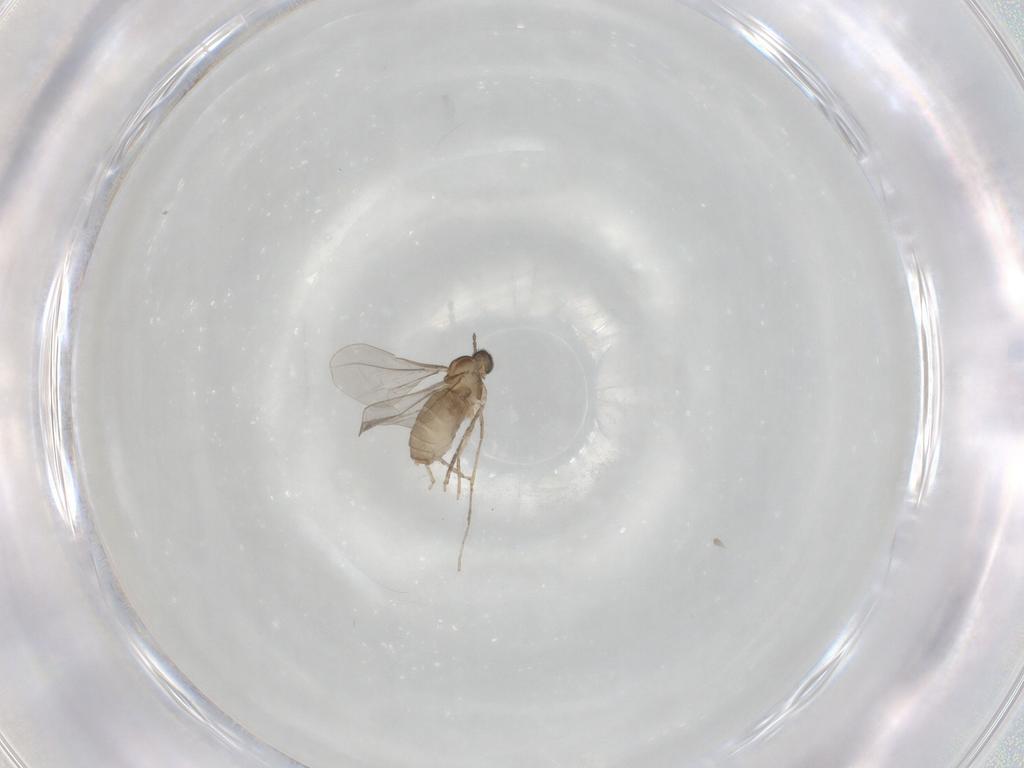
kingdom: Animalia
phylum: Arthropoda
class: Insecta
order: Diptera
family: Cecidomyiidae
